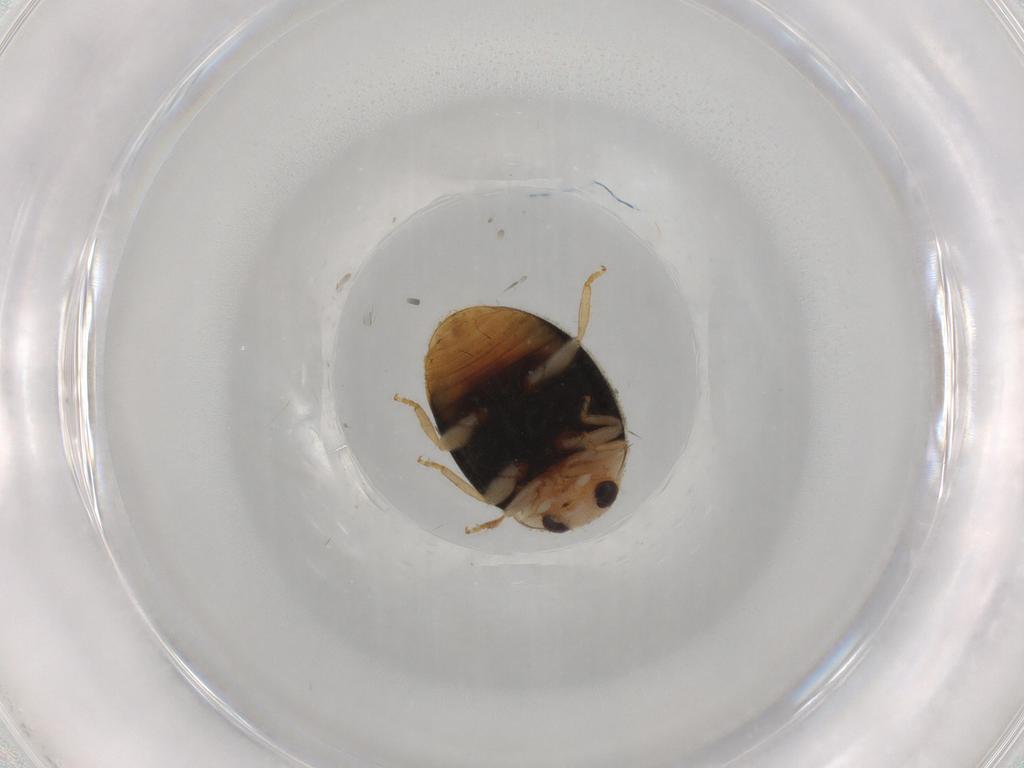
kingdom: Animalia
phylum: Arthropoda
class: Insecta
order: Coleoptera
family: Coccinellidae
